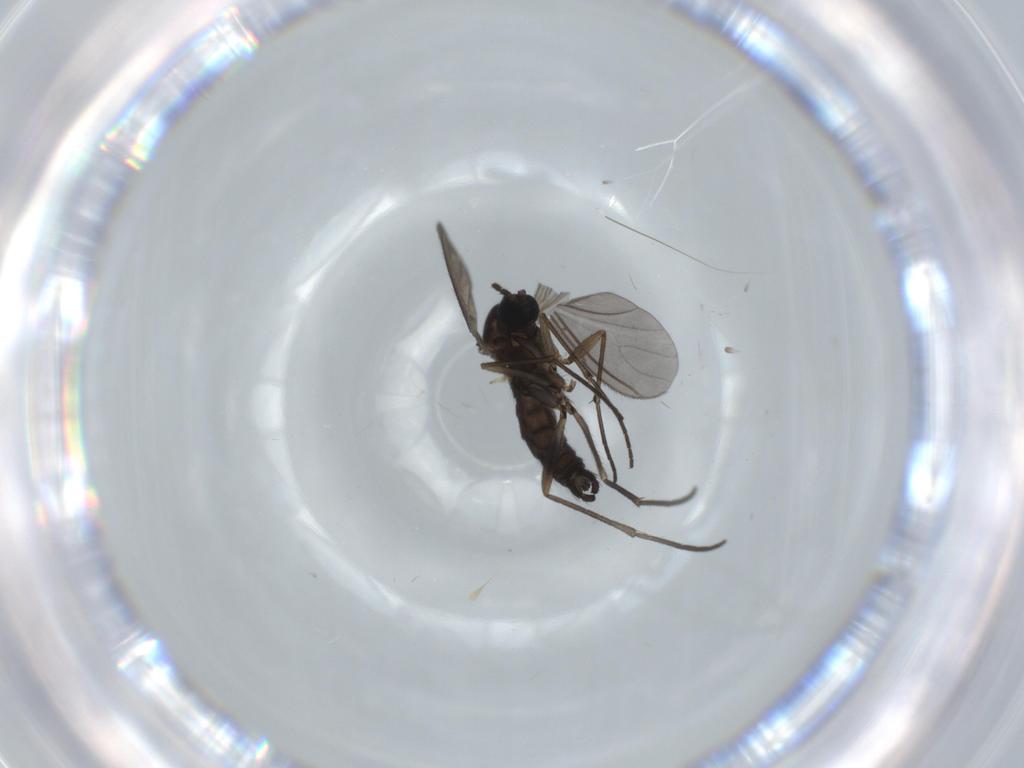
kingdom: Animalia
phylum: Arthropoda
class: Insecta
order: Diptera
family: Sciaridae
